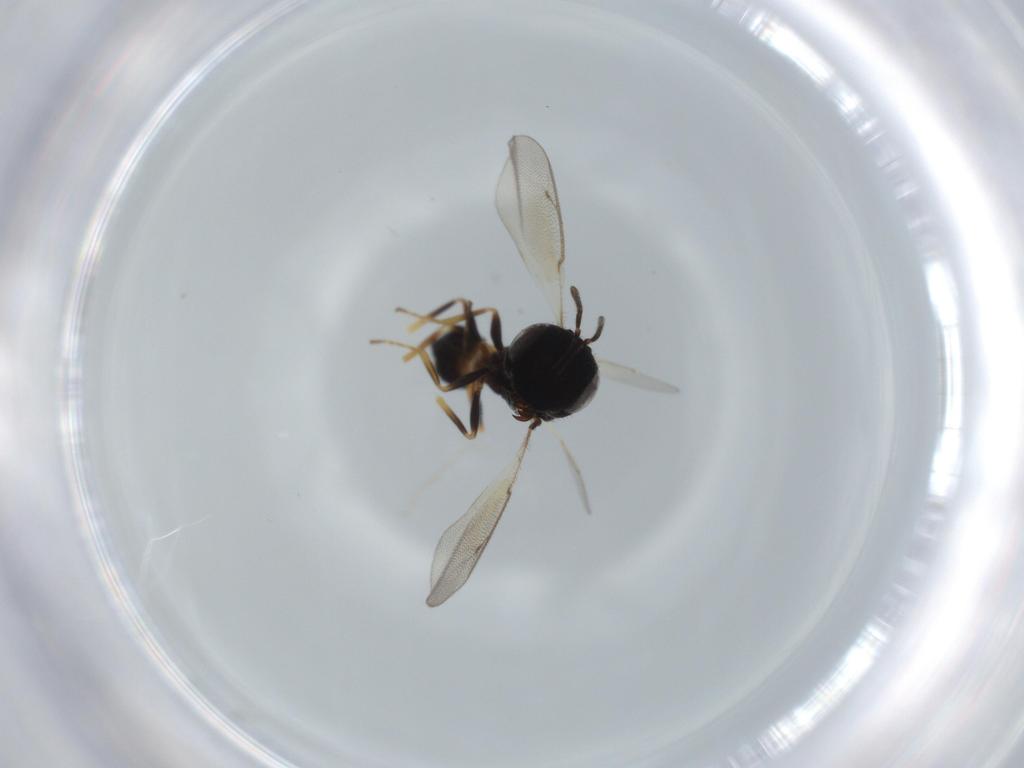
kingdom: Animalia
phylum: Arthropoda
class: Insecta
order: Hymenoptera
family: Pteromalidae
